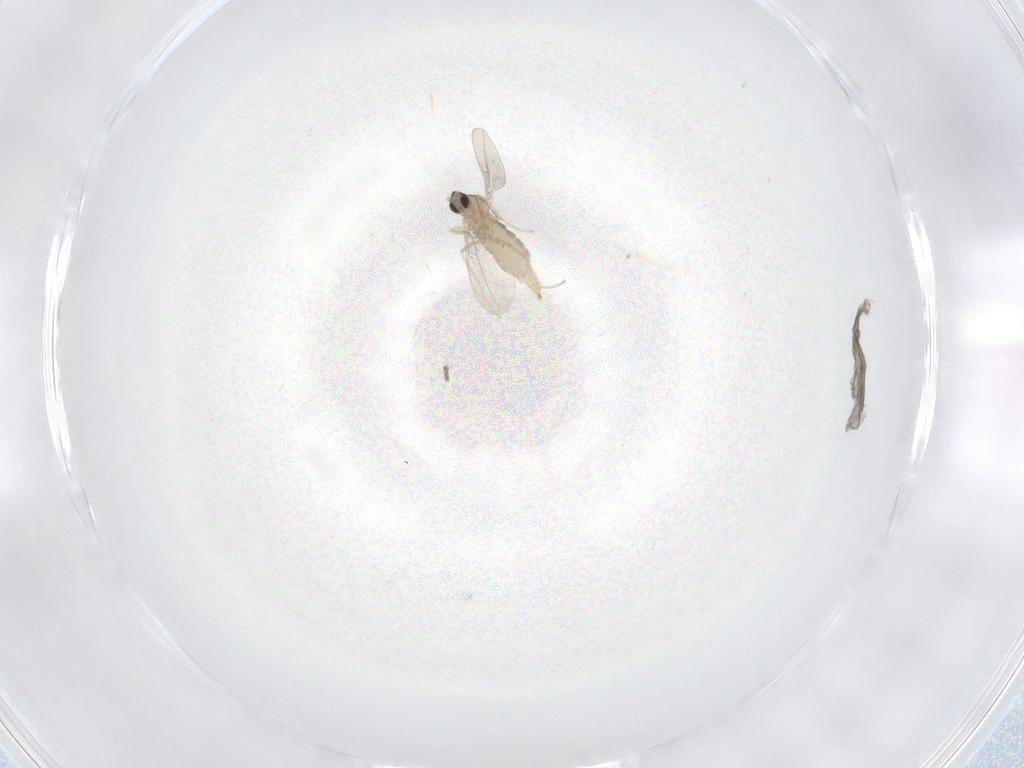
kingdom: Animalia
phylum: Arthropoda
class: Insecta
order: Diptera
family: Cecidomyiidae
